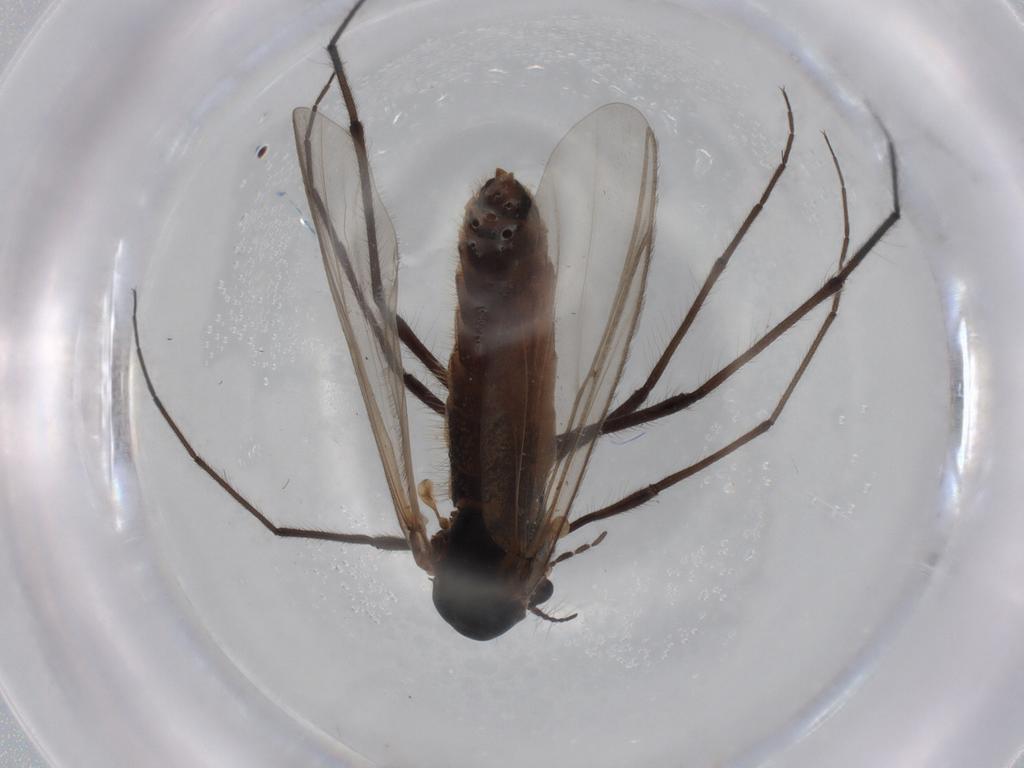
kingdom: Animalia
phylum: Arthropoda
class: Insecta
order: Diptera
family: Chironomidae
